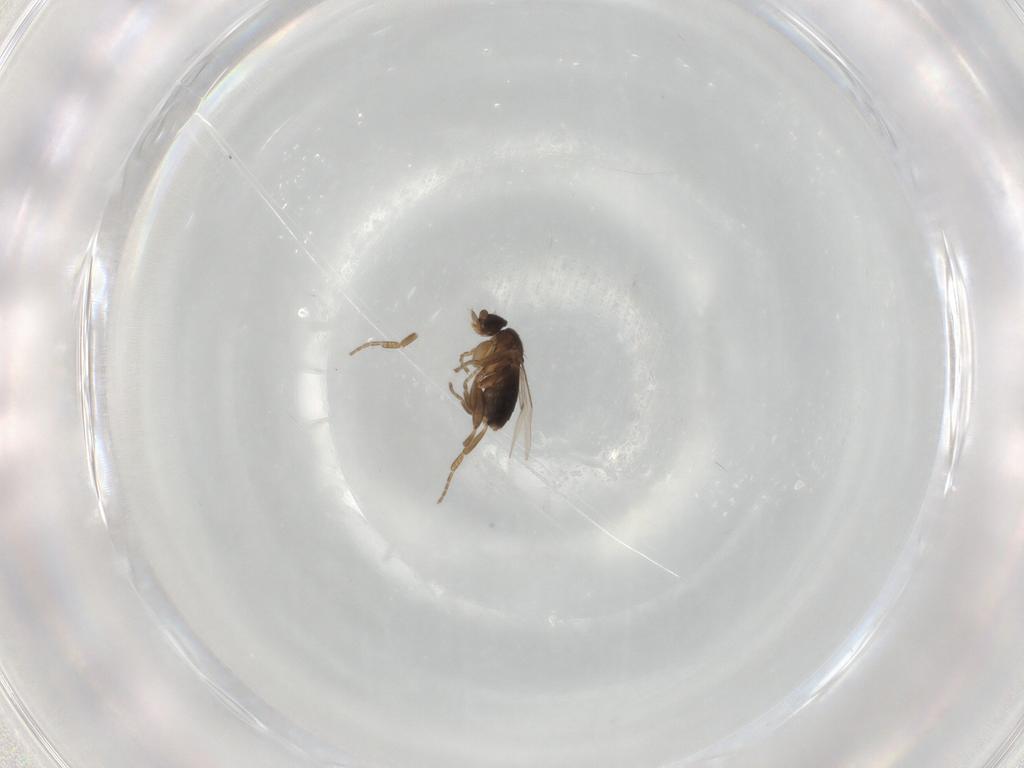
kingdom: Animalia
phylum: Arthropoda
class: Insecta
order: Diptera
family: Phoridae
